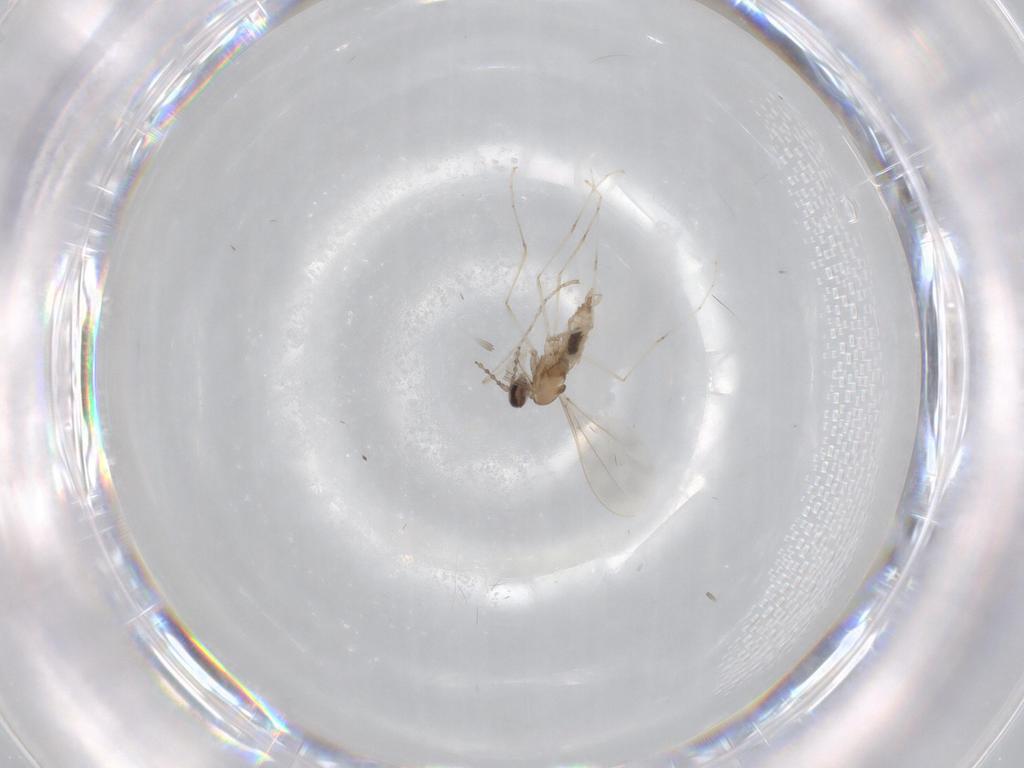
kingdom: Animalia
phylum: Arthropoda
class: Insecta
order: Diptera
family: Cecidomyiidae
